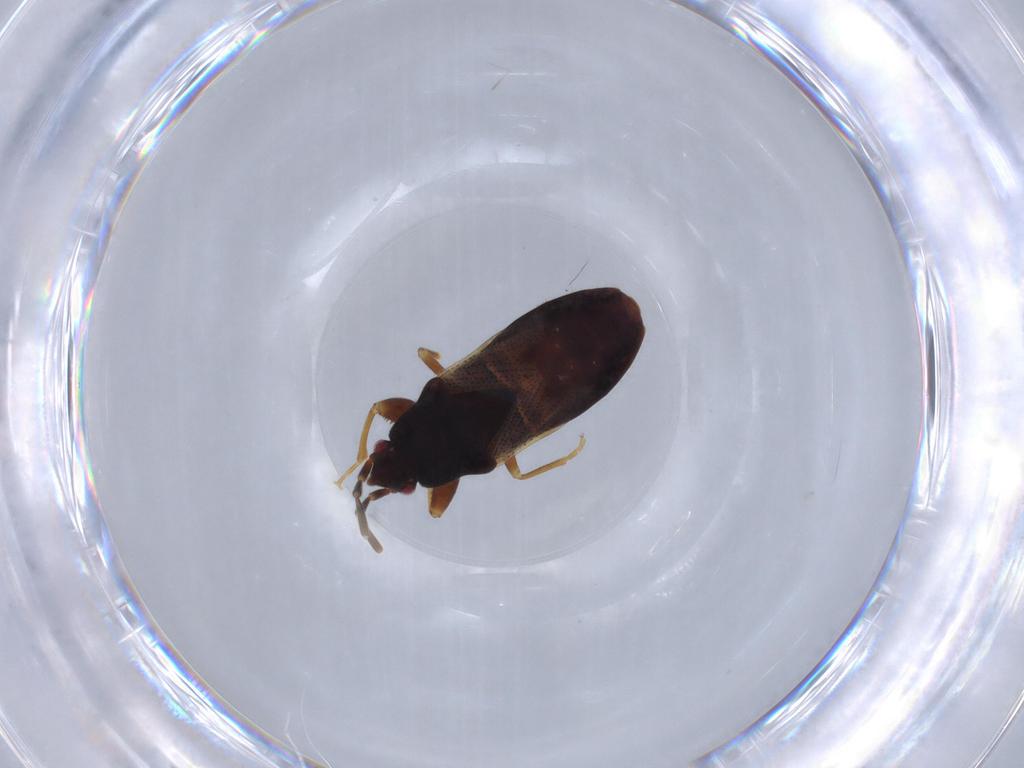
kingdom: Animalia
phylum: Arthropoda
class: Insecta
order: Hemiptera
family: Rhyparochromidae
